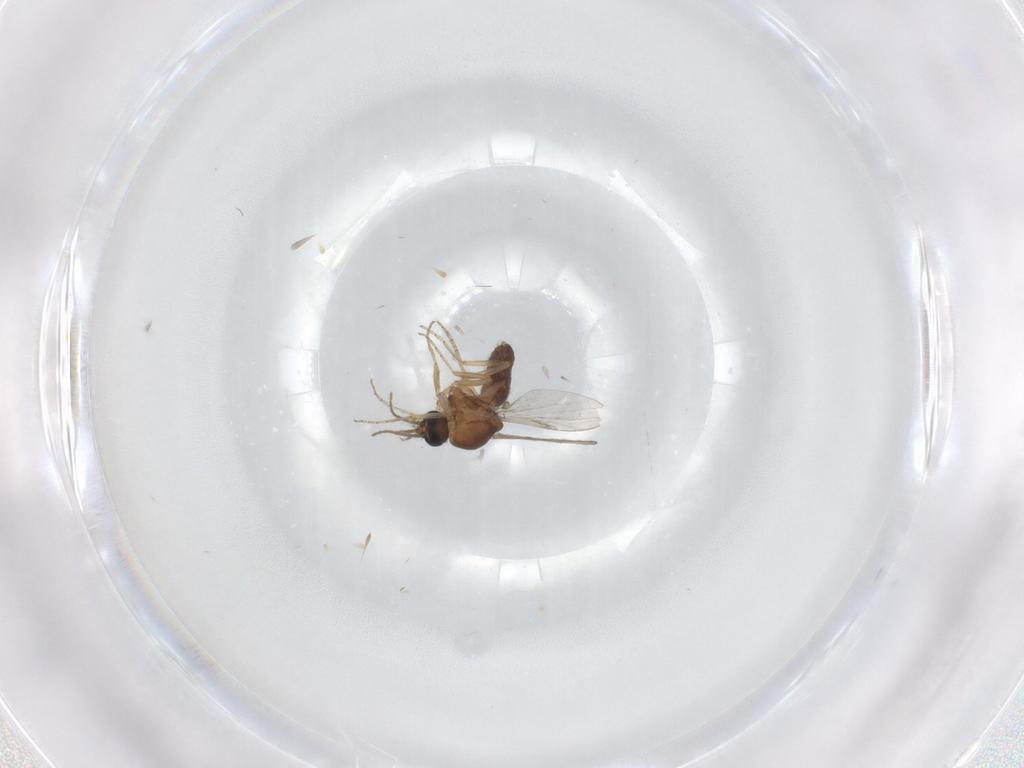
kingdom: Animalia
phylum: Arthropoda
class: Insecta
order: Diptera
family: Ceratopogonidae
